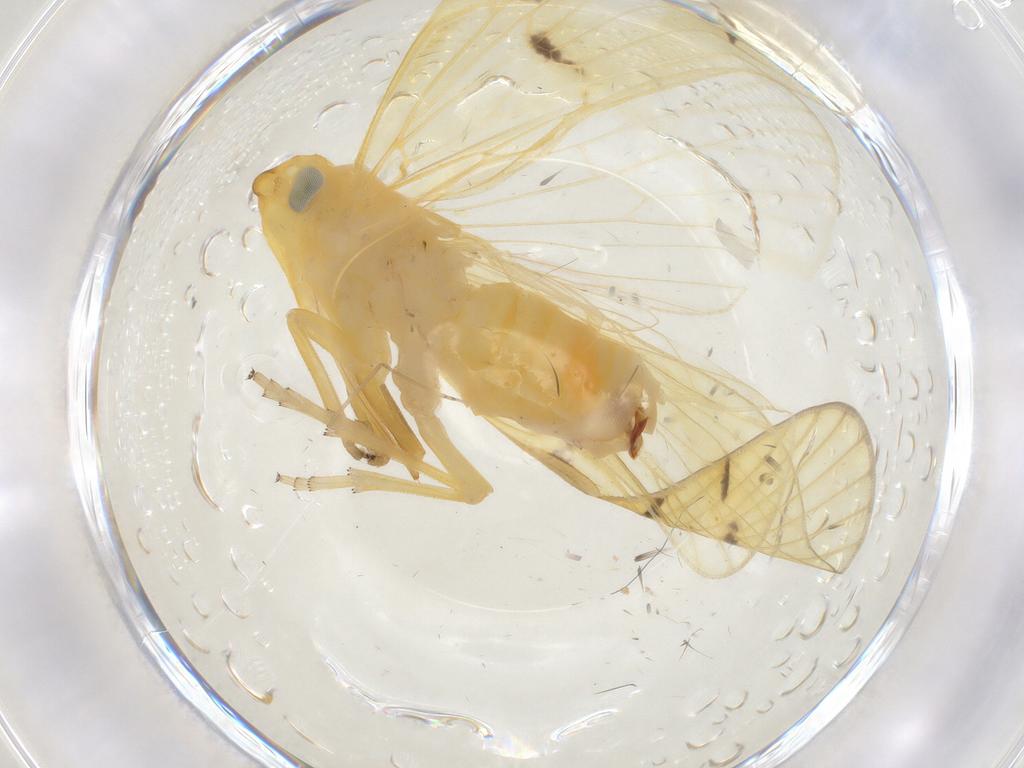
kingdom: Animalia
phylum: Arthropoda
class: Insecta
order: Hemiptera
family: Cixiidae
